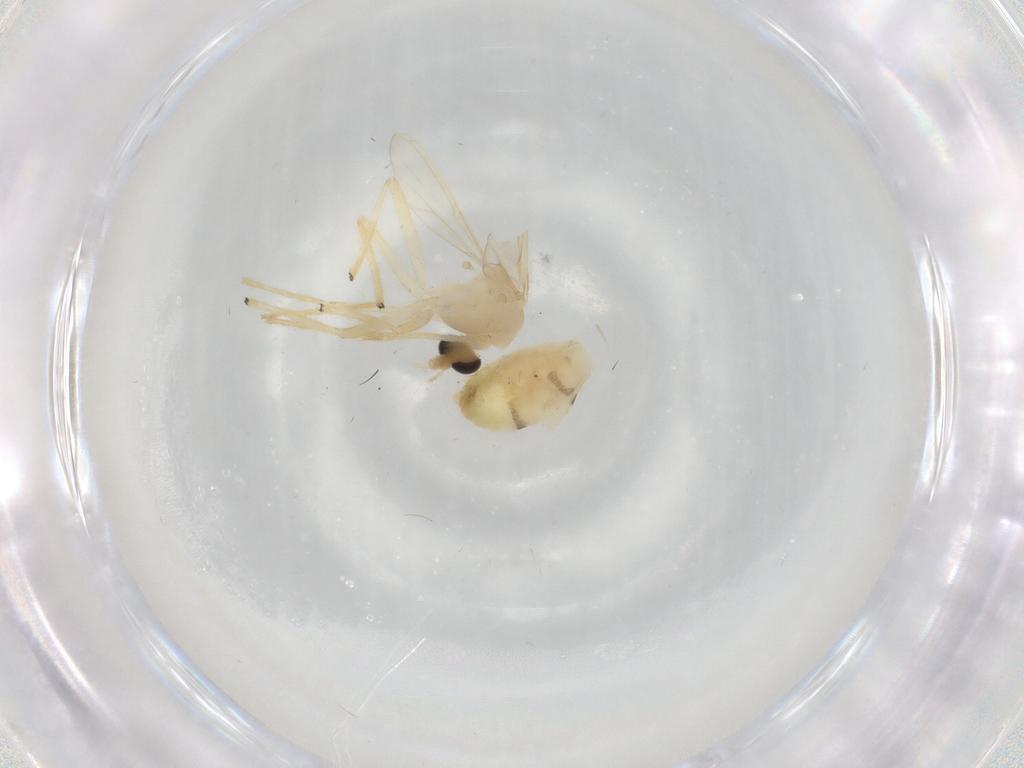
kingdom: Animalia
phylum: Arthropoda
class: Insecta
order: Diptera
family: Chironomidae
